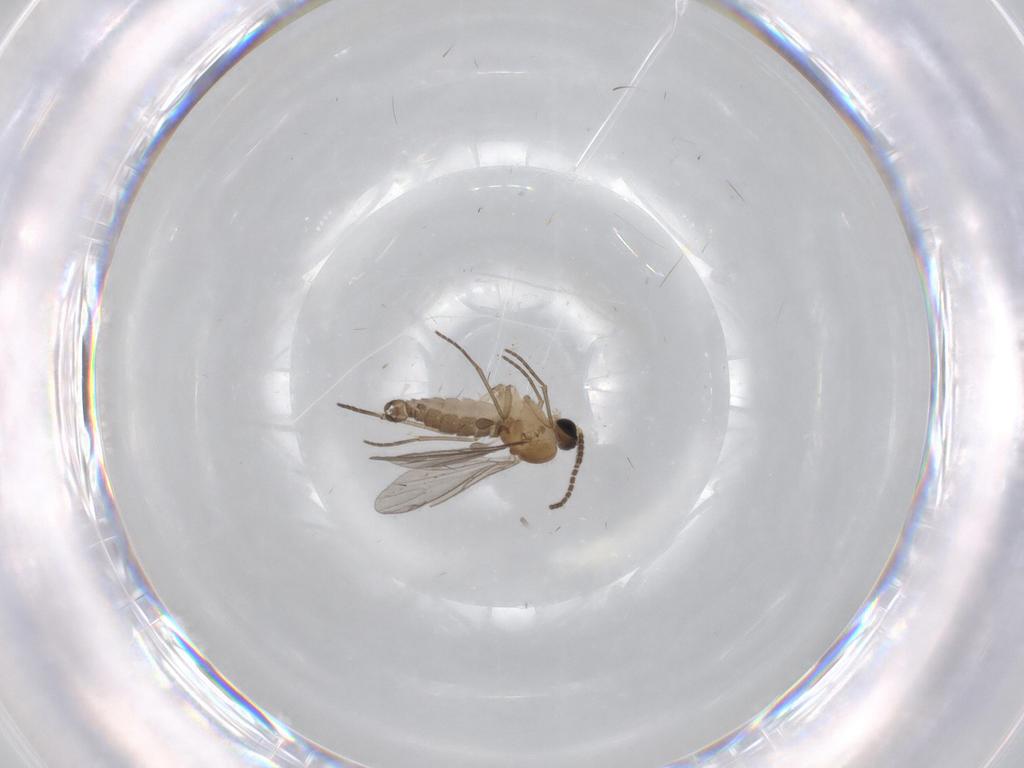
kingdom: Animalia
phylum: Arthropoda
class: Insecta
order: Diptera
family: Sciaridae
